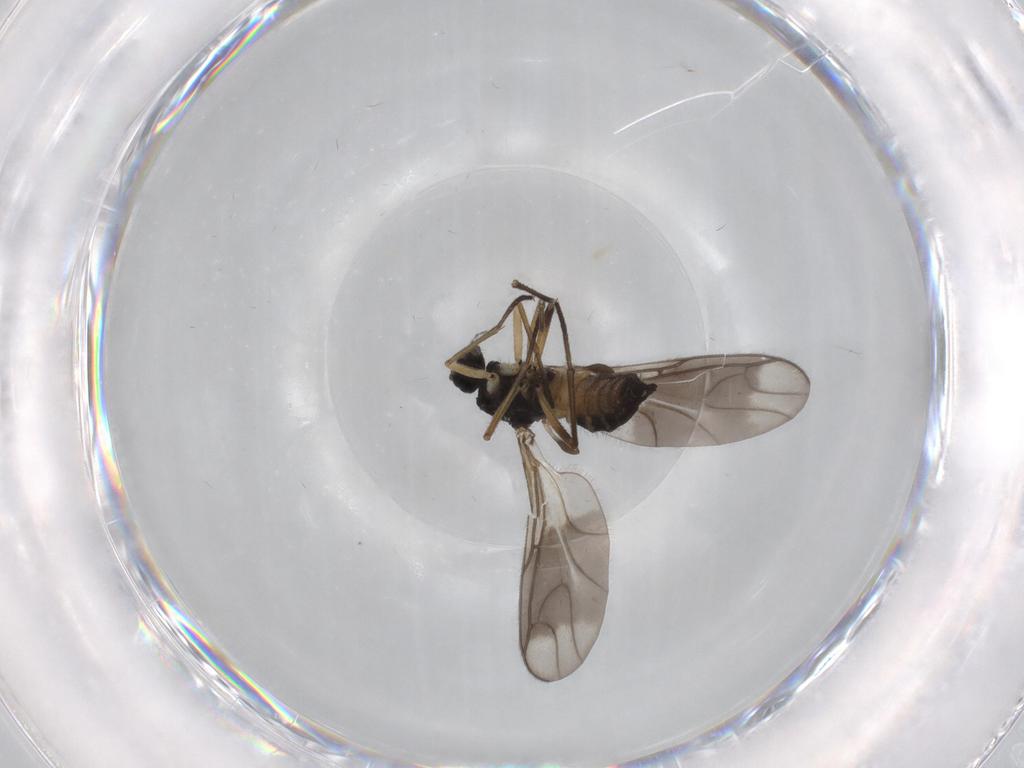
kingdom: Animalia
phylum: Arthropoda
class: Insecta
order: Diptera
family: Sciaridae
